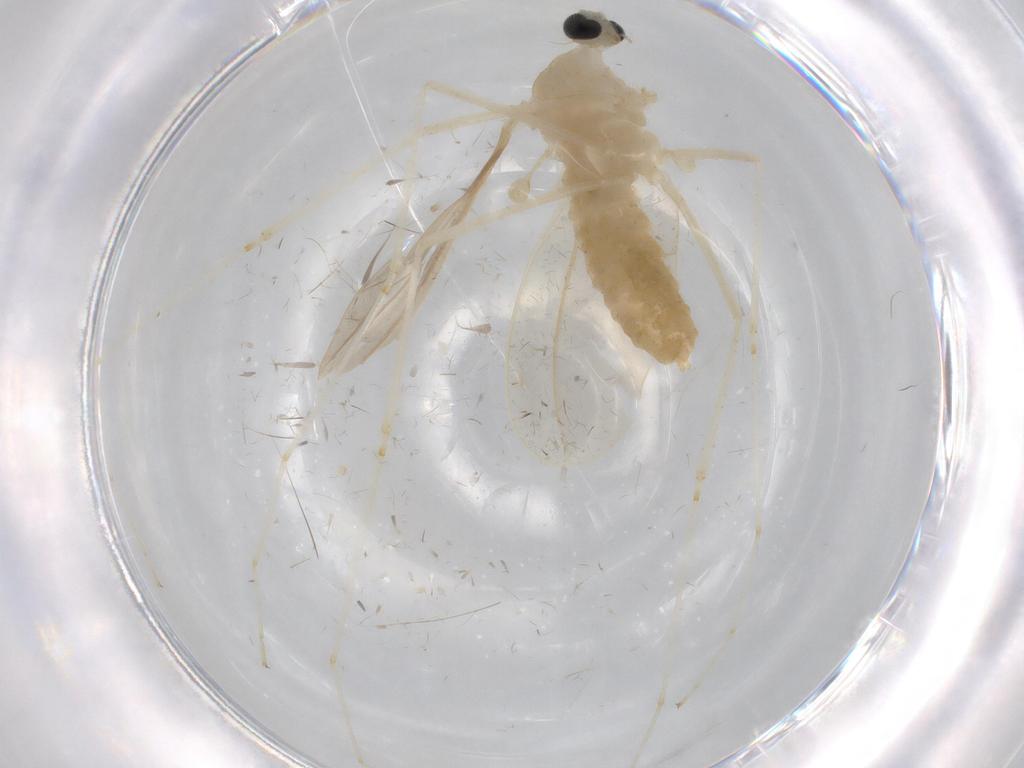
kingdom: Animalia
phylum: Arthropoda
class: Insecta
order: Diptera
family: Cecidomyiidae
